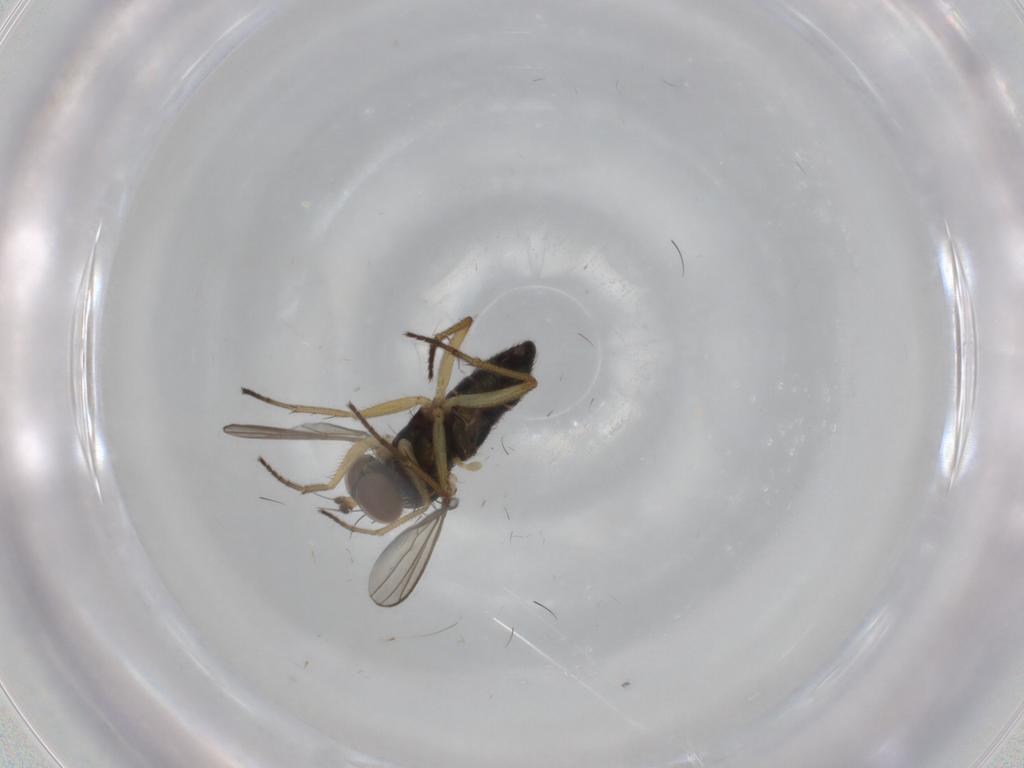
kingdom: Animalia
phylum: Arthropoda
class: Insecta
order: Diptera
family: Dolichopodidae
